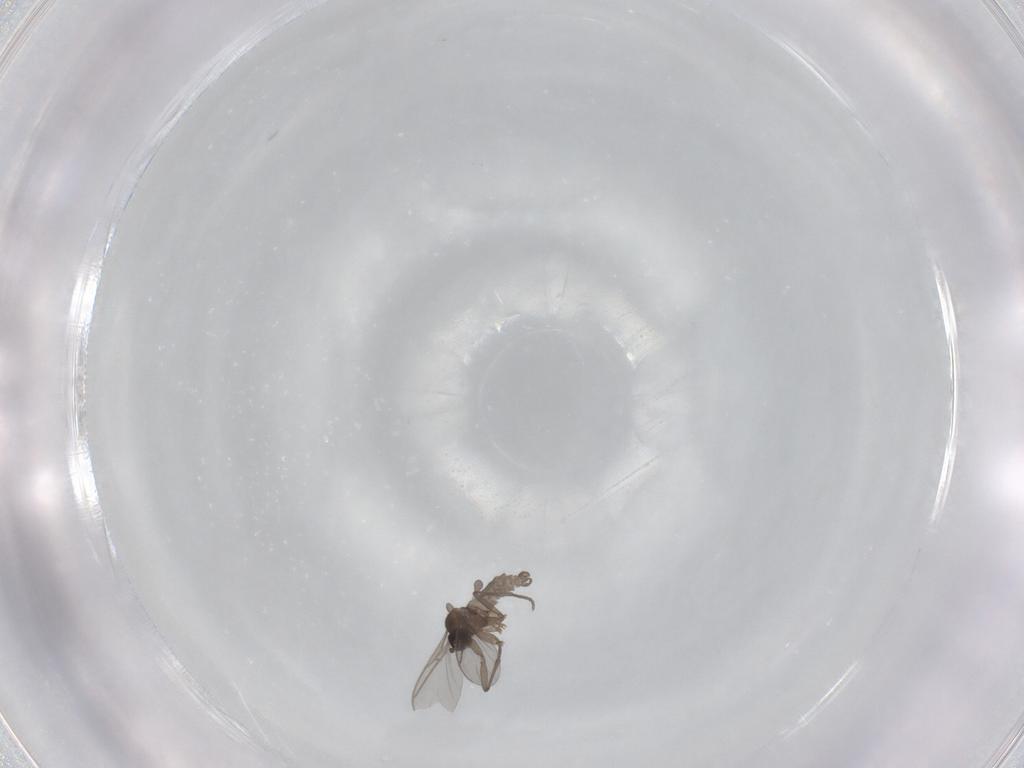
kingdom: Animalia
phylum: Arthropoda
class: Insecta
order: Diptera
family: Sciaridae
